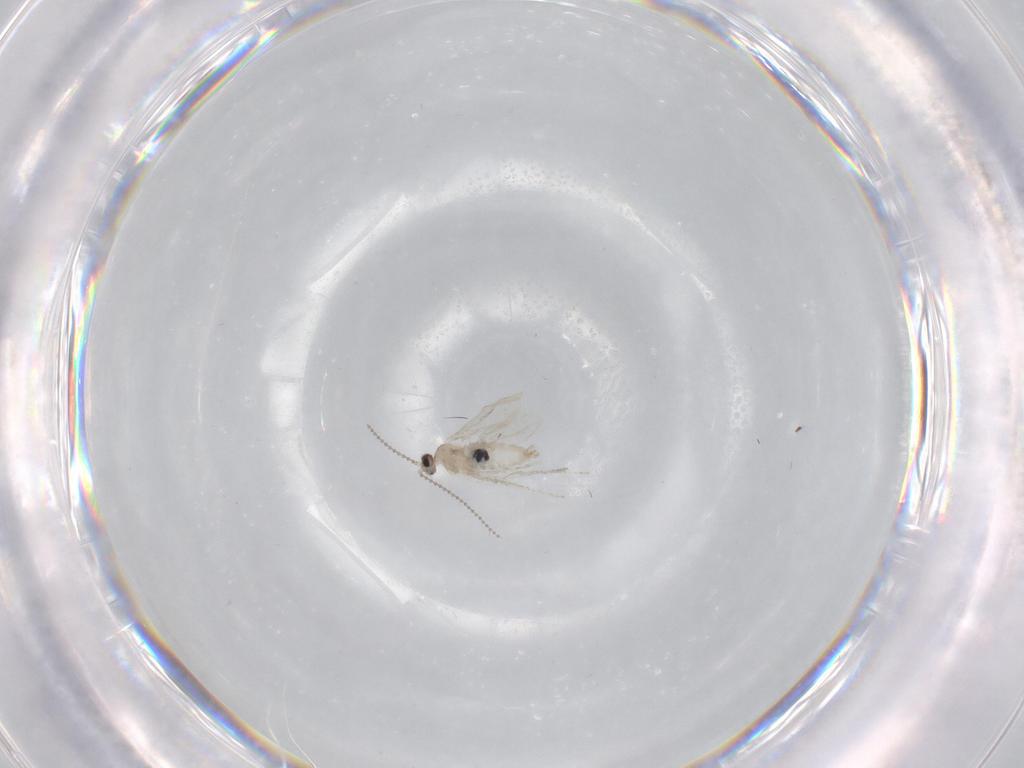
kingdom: Animalia
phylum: Arthropoda
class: Insecta
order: Diptera
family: Cecidomyiidae
